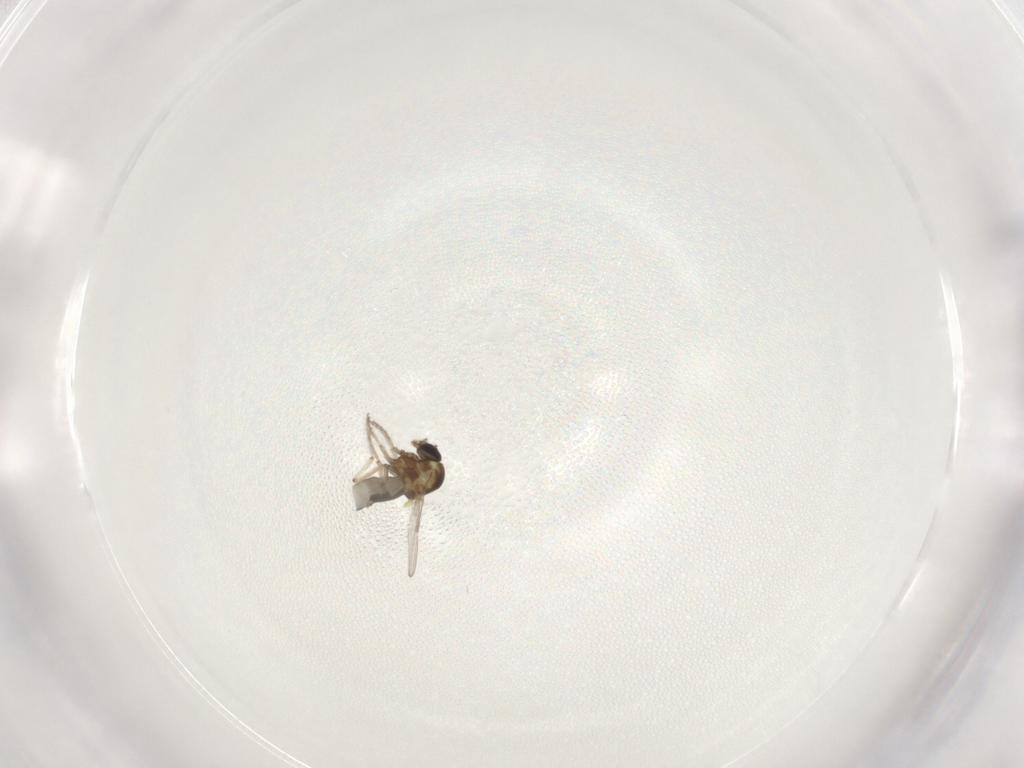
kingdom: Animalia
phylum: Arthropoda
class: Insecta
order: Diptera
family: Ceratopogonidae
